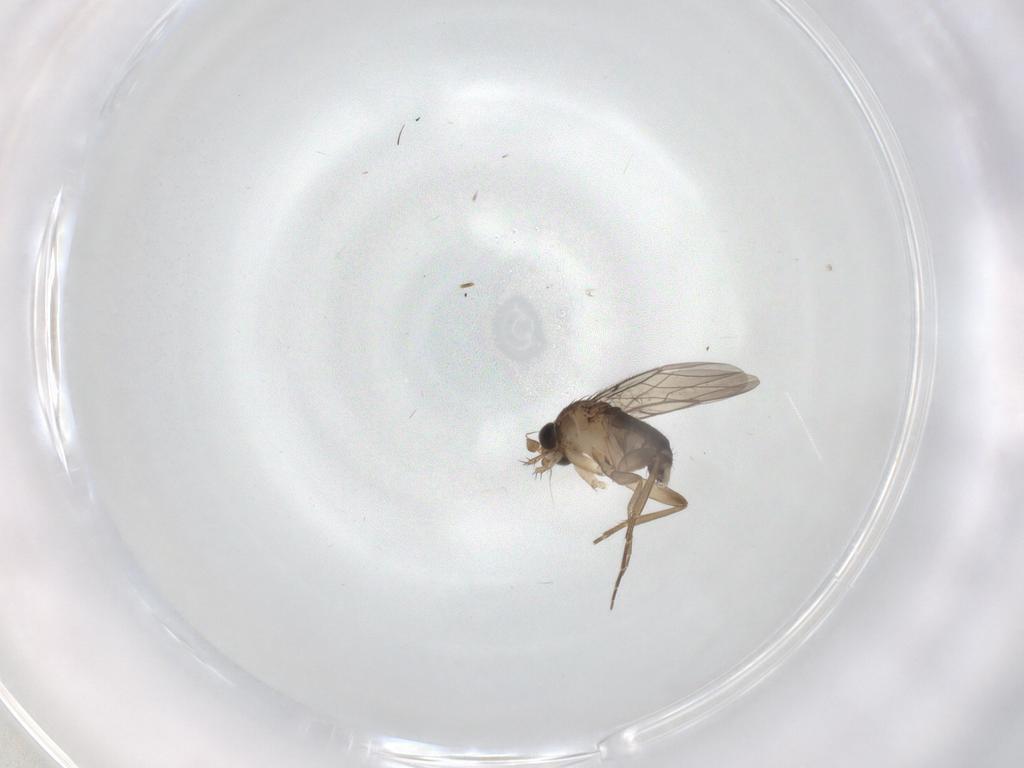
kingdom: Animalia
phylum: Arthropoda
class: Insecta
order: Diptera
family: Phoridae
